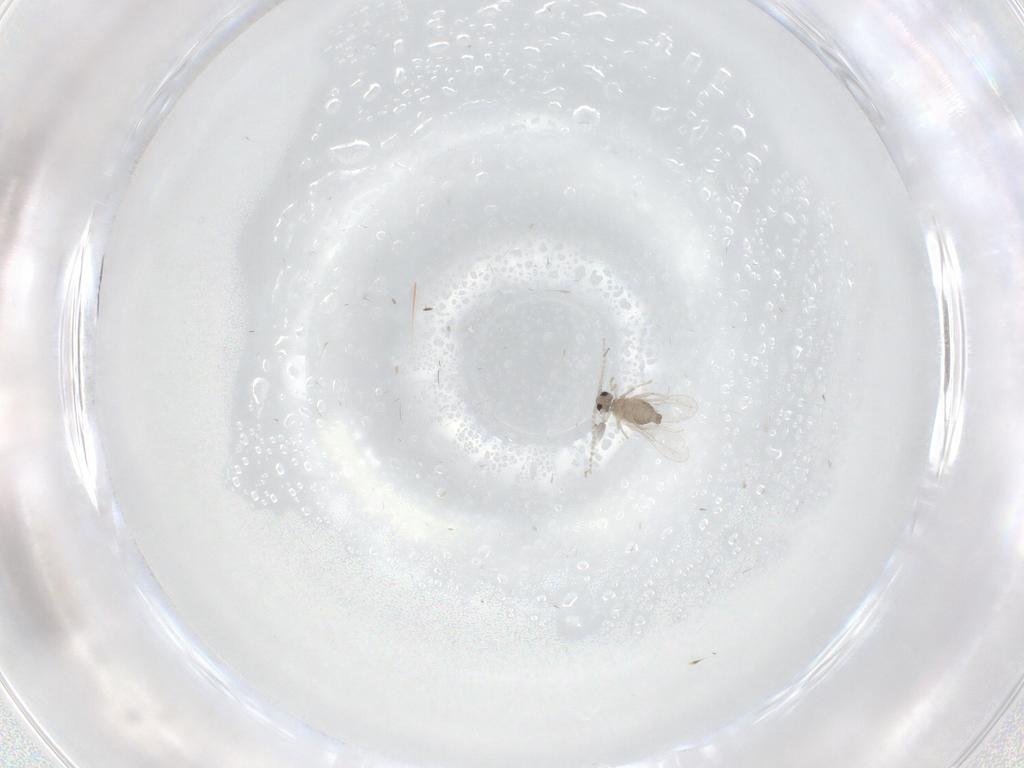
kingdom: Animalia
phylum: Arthropoda
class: Insecta
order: Diptera
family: Cecidomyiidae
